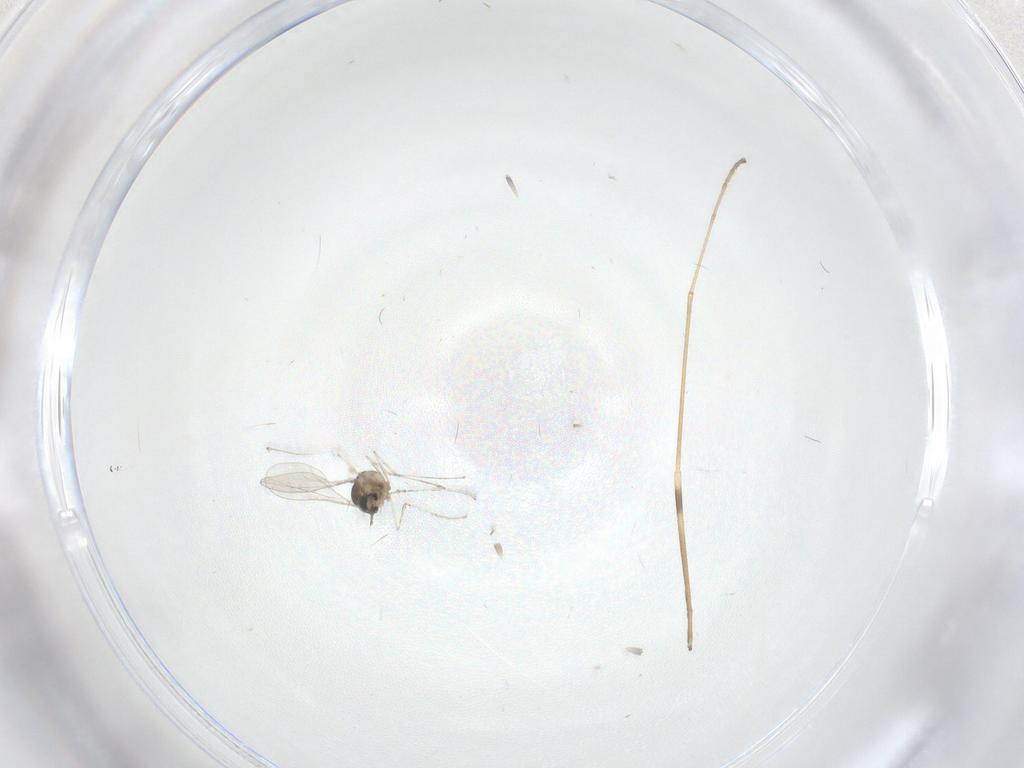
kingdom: Animalia
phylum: Arthropoda
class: Insecta
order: Diptera
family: Limoniidae
